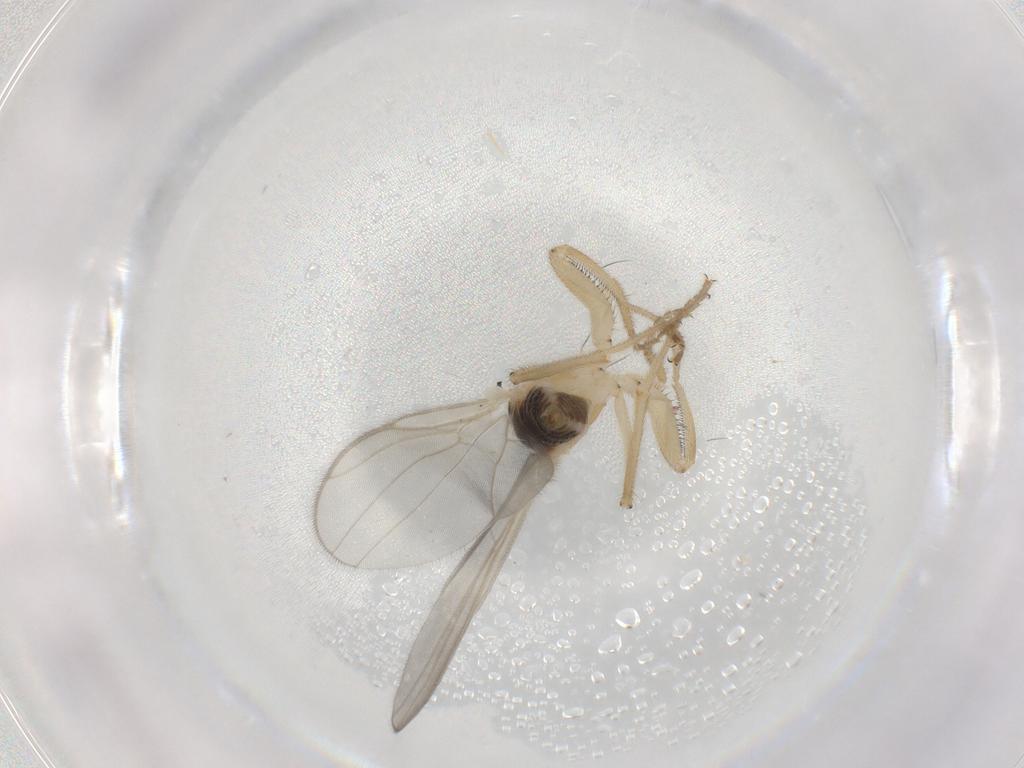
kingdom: Animalia
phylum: Arthropoda
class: Insecta
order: Diptera
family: Hybotidae
